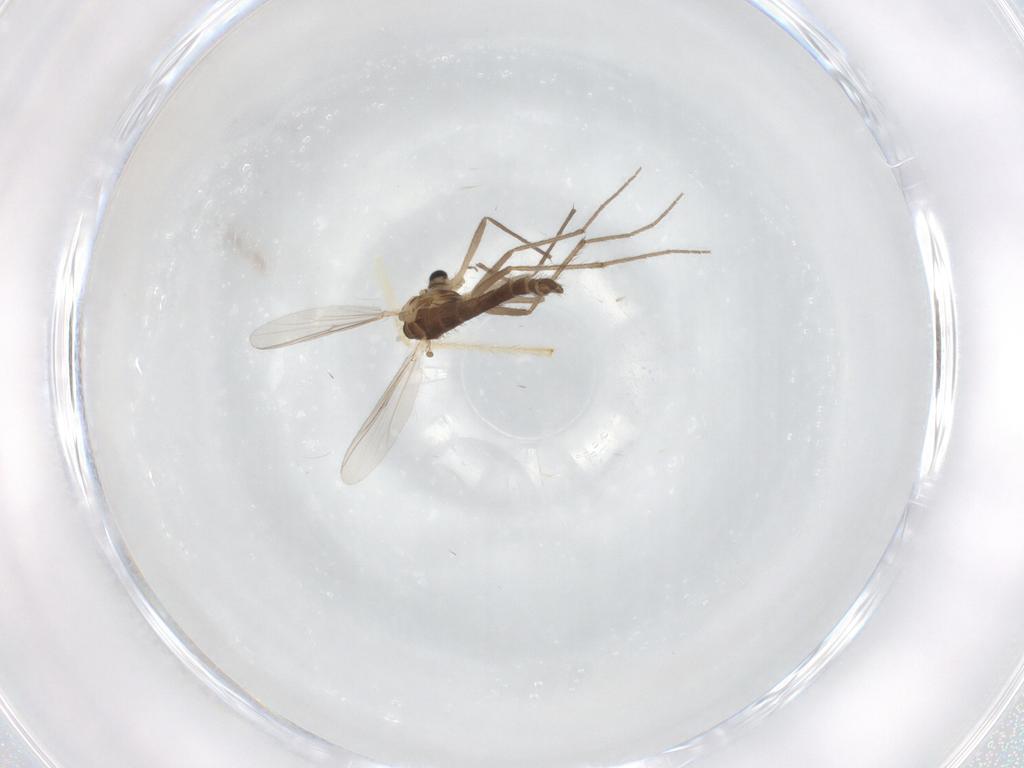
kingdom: Animalia
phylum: Arthropoda
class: Insecta
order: Diptera
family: Chironomidae
